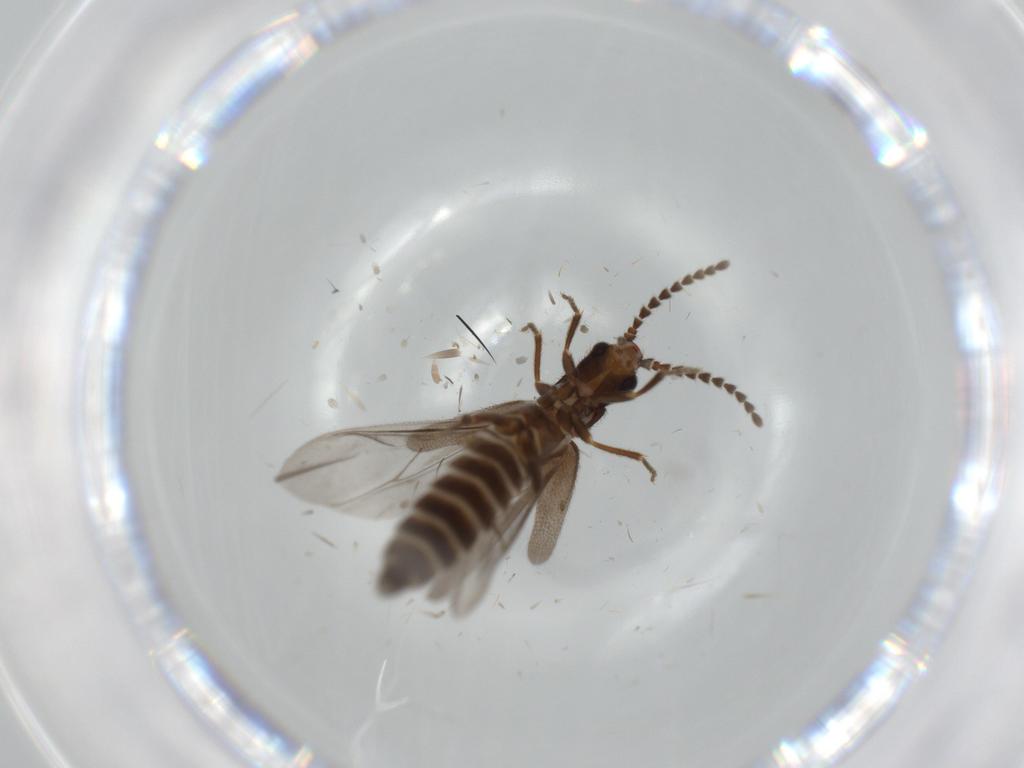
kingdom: Animalia
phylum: Arthropoda
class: Insecta
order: Coleoptera
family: Omethidae
